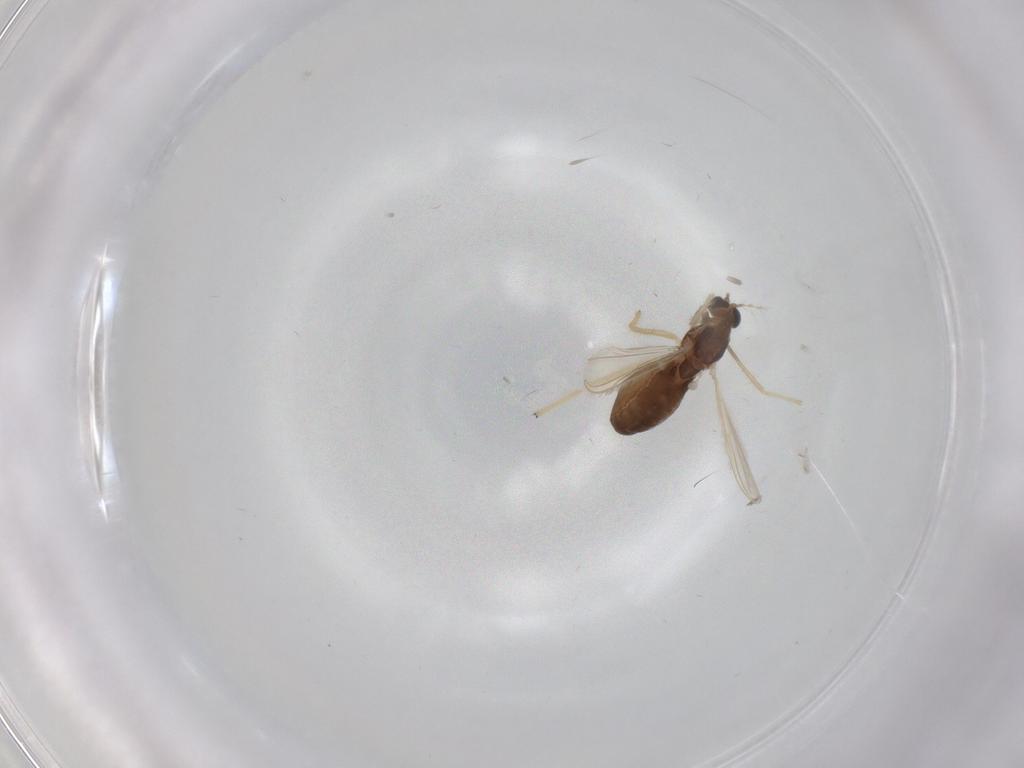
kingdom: Animalia
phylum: Arthropoda
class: Insecta
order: Diptera
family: Chironomidae
